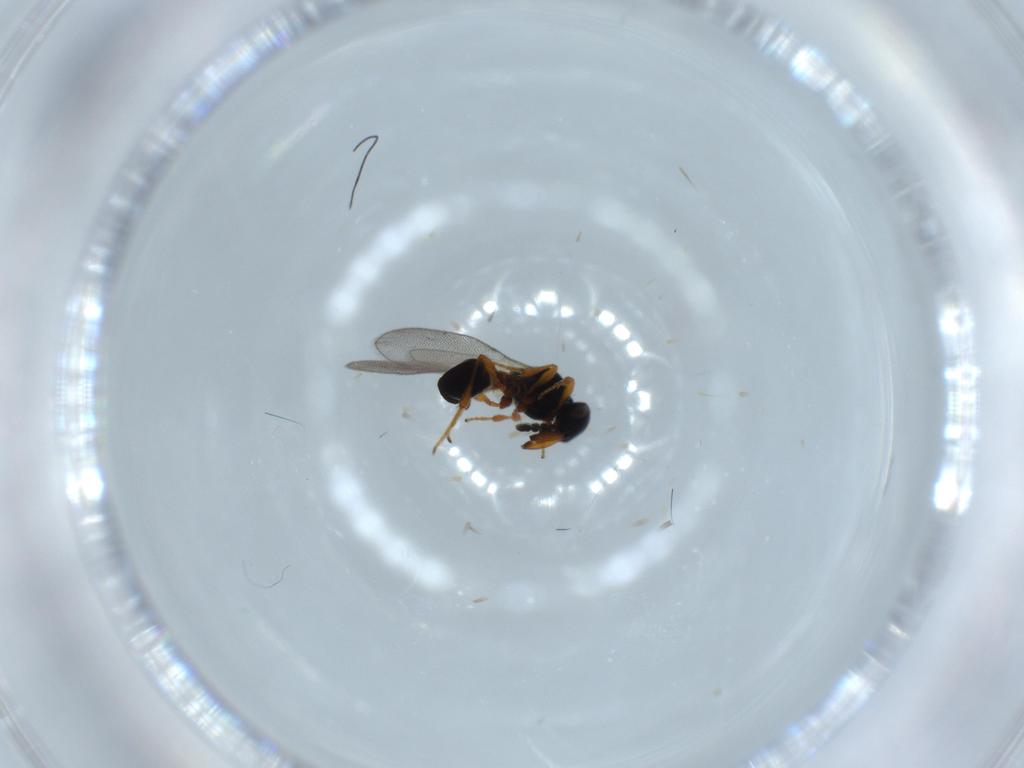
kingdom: Animalia
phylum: Arthropoda
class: Insecta
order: Hymenoptera
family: Platygastridae
